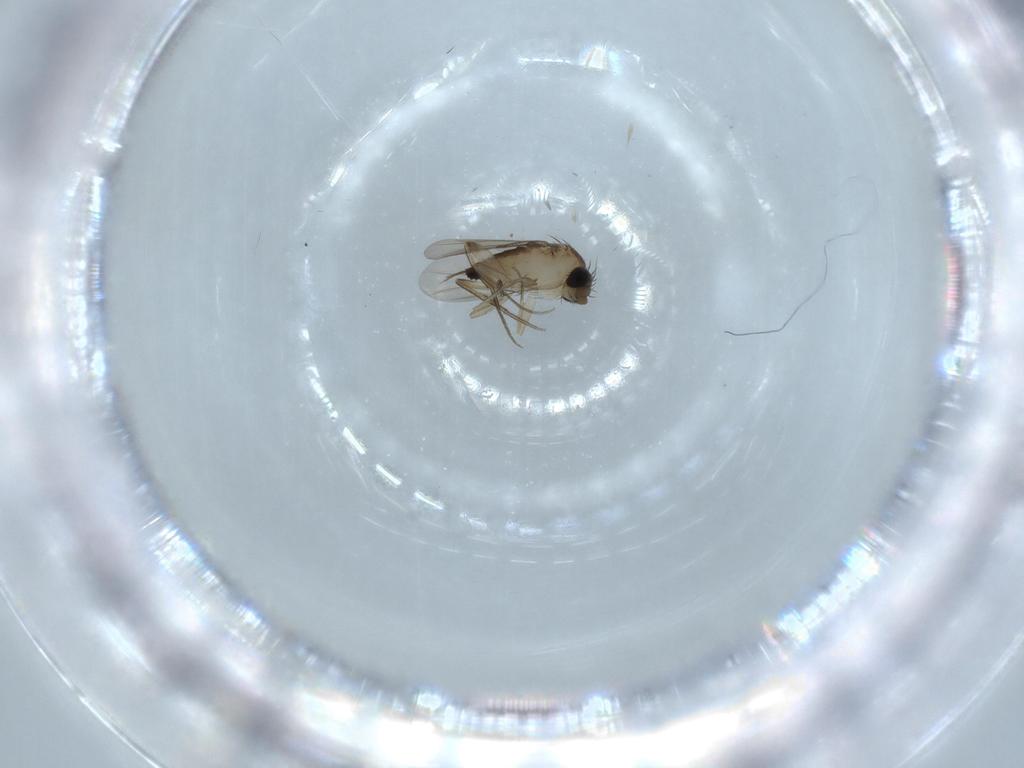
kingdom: Animalia
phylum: Arthropoda
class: Insecta
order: Diptera
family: Phoridae
